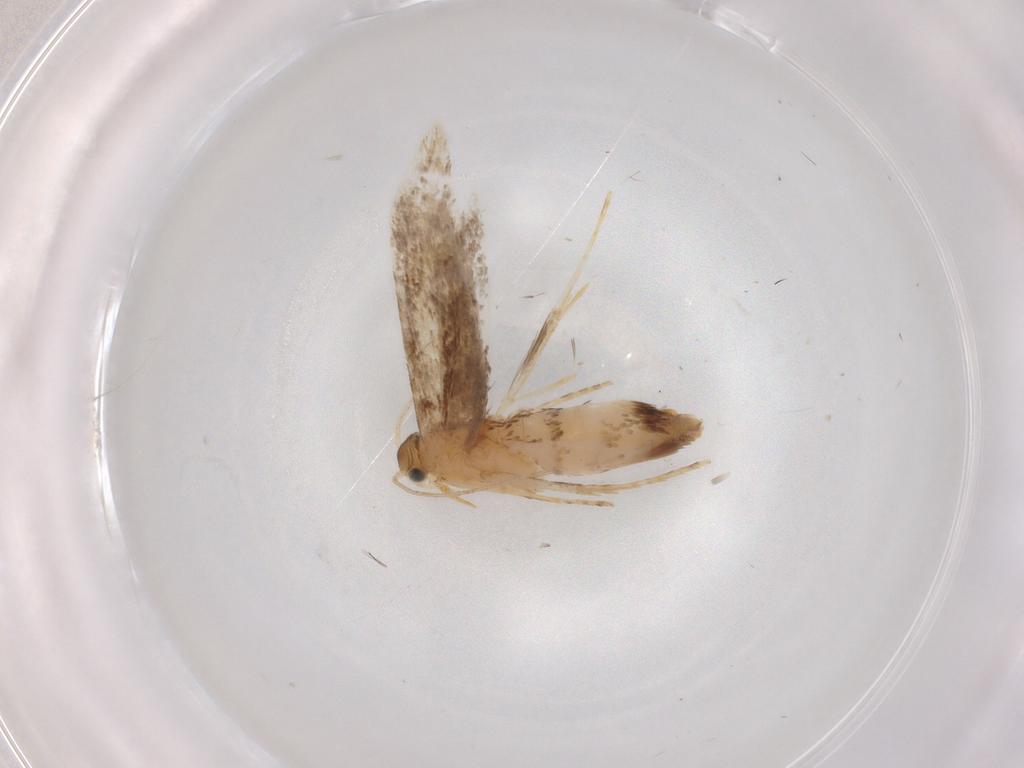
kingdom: Animalia
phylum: Arthropoda
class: Insecta
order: Lepidoptera
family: Dryadaulidae
